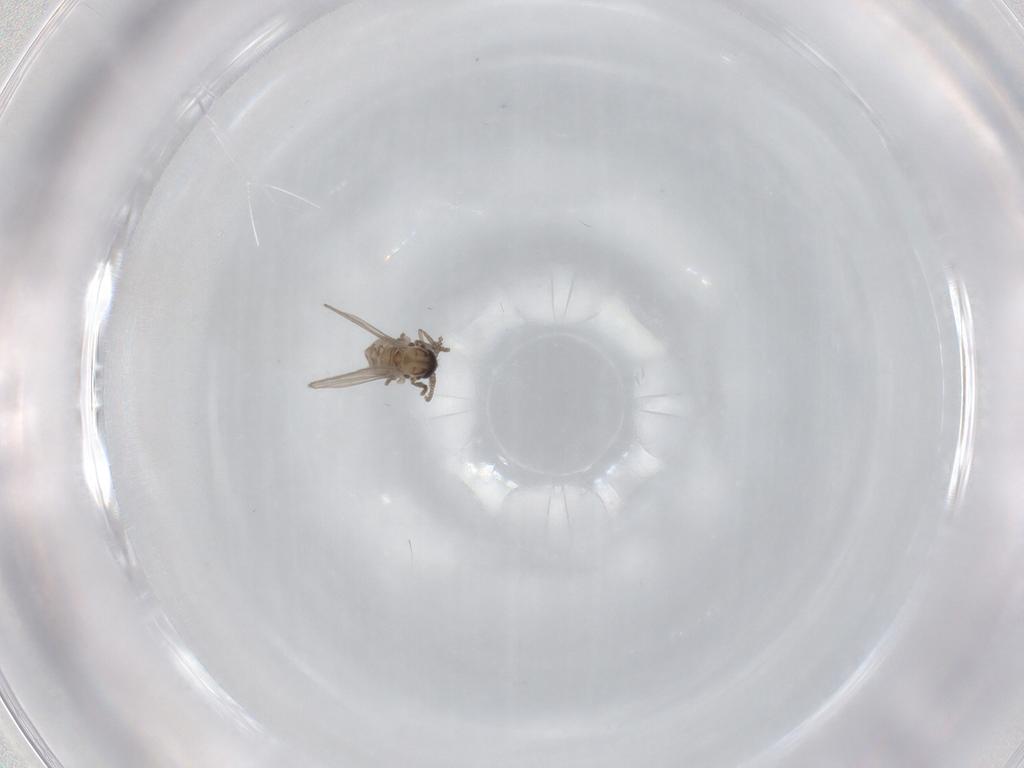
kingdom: Animalia
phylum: Arthropoda
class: Insecta
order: Diptera
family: Psychodidae
